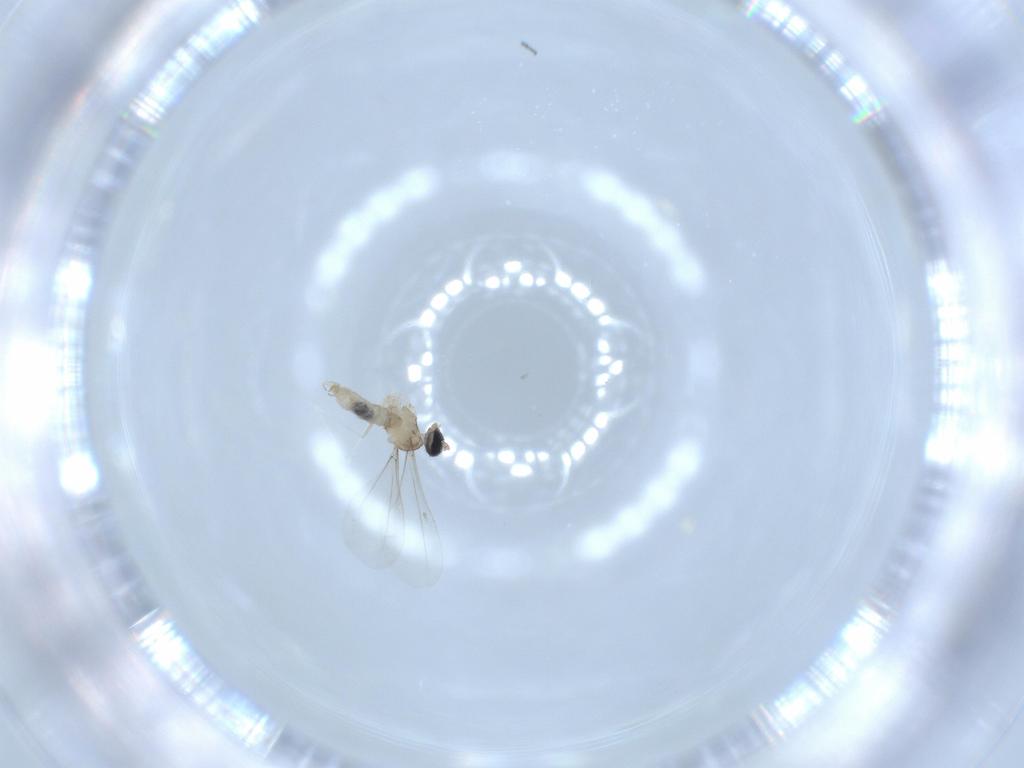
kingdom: Animalia
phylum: Arthropoda
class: Insecta
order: Diptera
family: Cecidomyiidae
